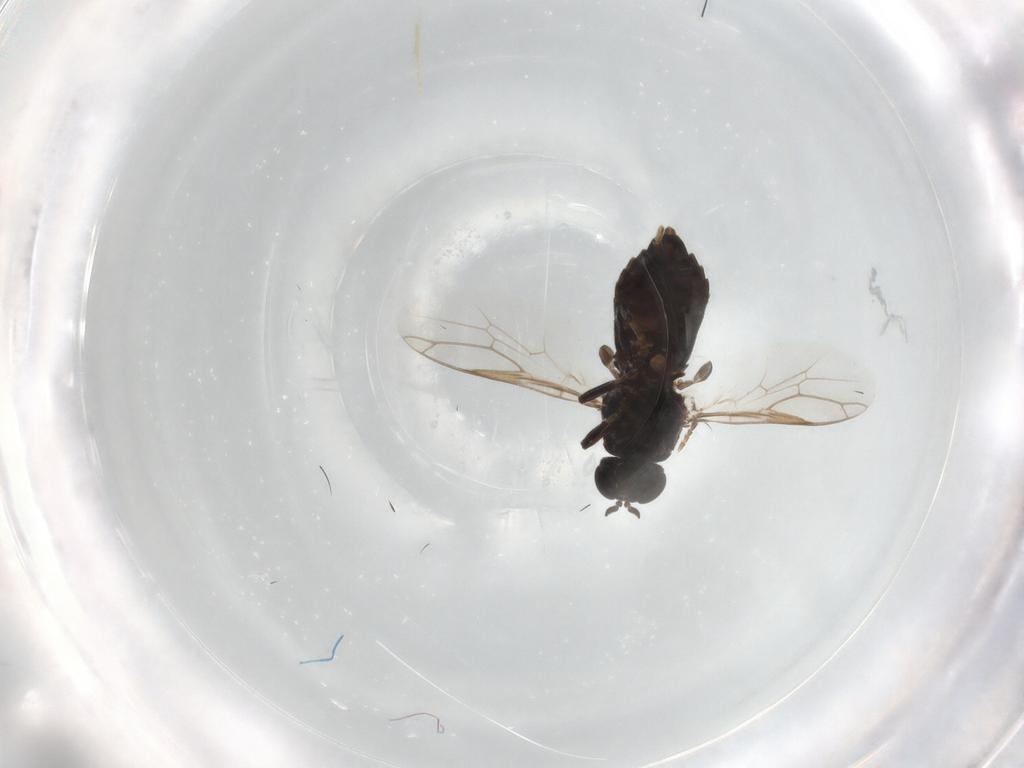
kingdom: Animalia
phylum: Arthropoda
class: Insecta
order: Diptera
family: Scenopinidae
